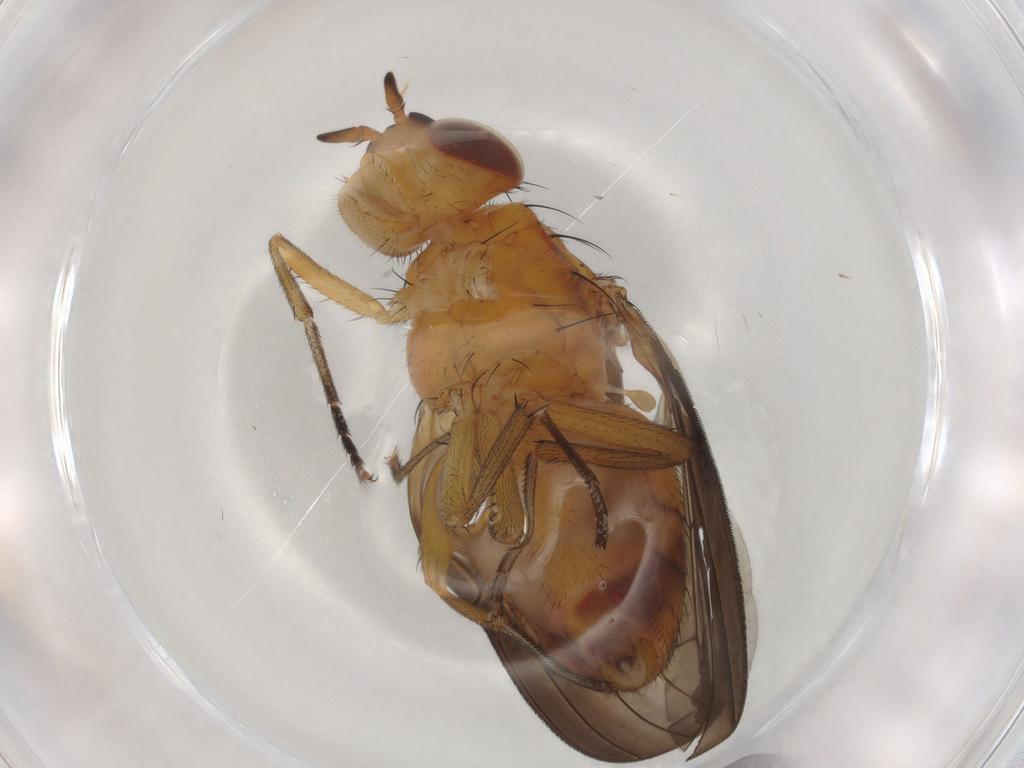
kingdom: Animalia
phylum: Arthropoda
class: Insecta
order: Diptera
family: Lauxaniidae
